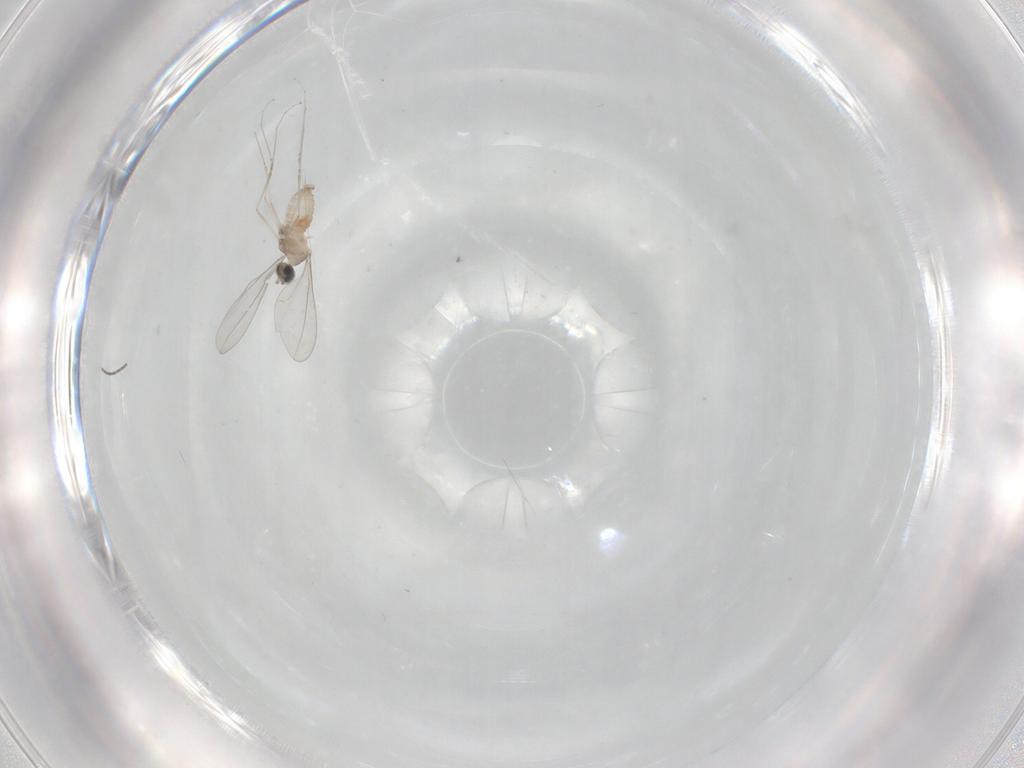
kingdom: Animalia
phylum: Arthropoda
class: Insecta
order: Diptera
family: Cecidomyiidae
